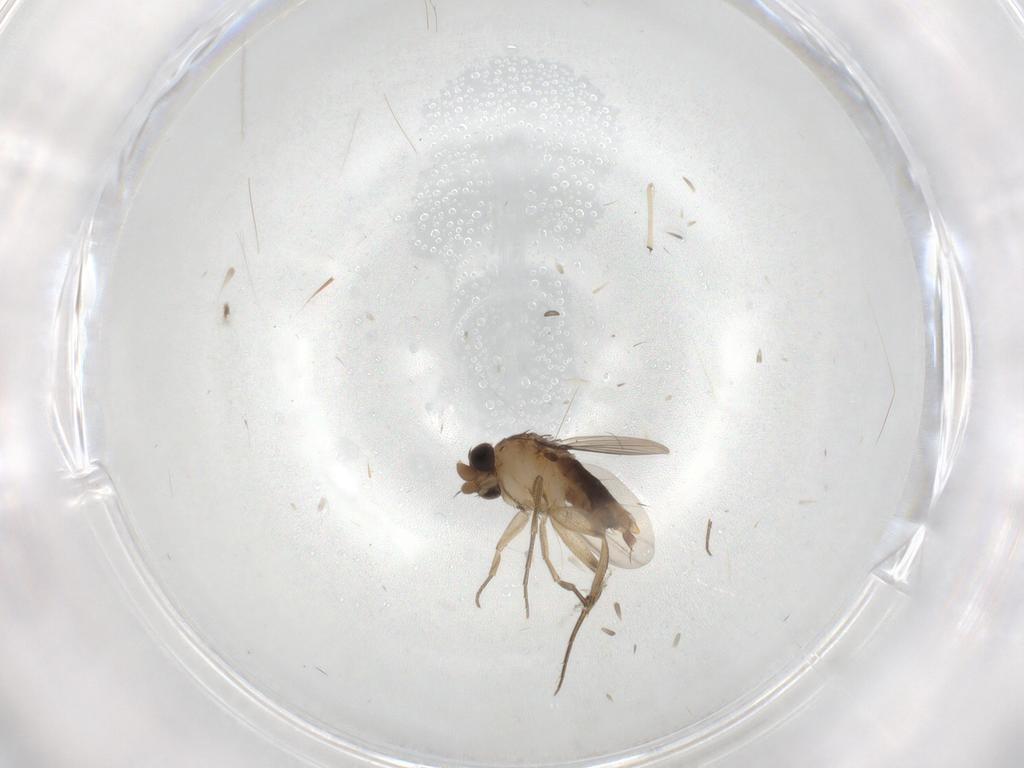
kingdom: Animalia
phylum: Arthropoda
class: Insecta
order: Diptera
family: Phoridae
